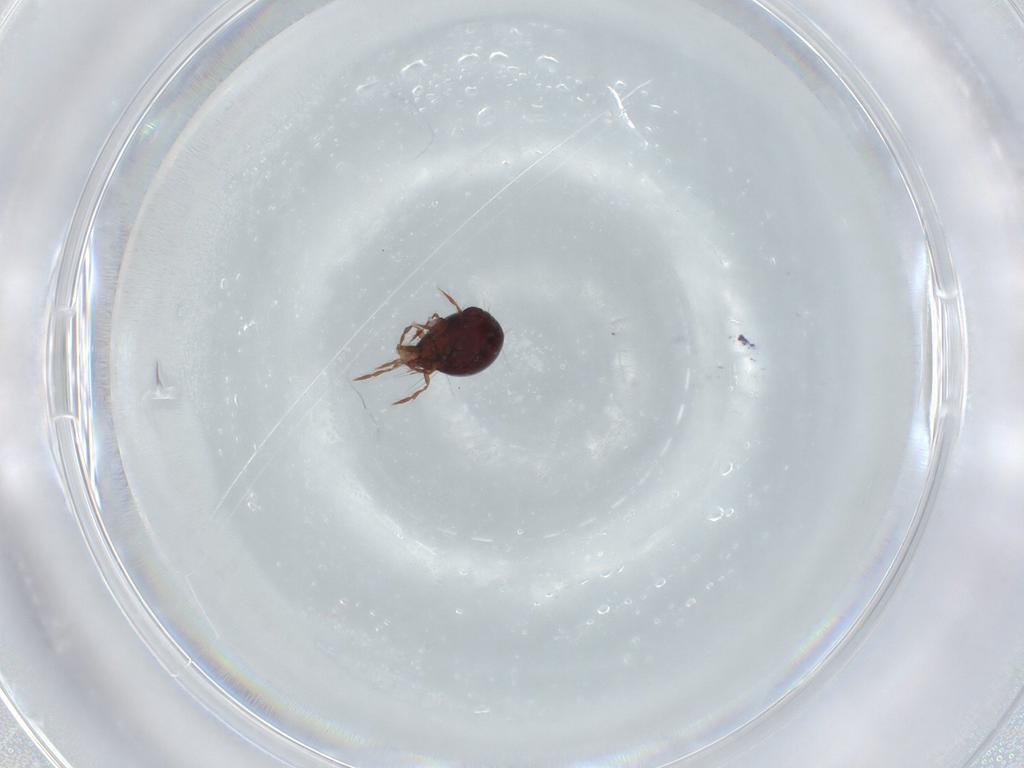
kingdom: Animalia
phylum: Arthropoda
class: Arachnida
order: Sarcoptiformes
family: Ceratoppiidae
